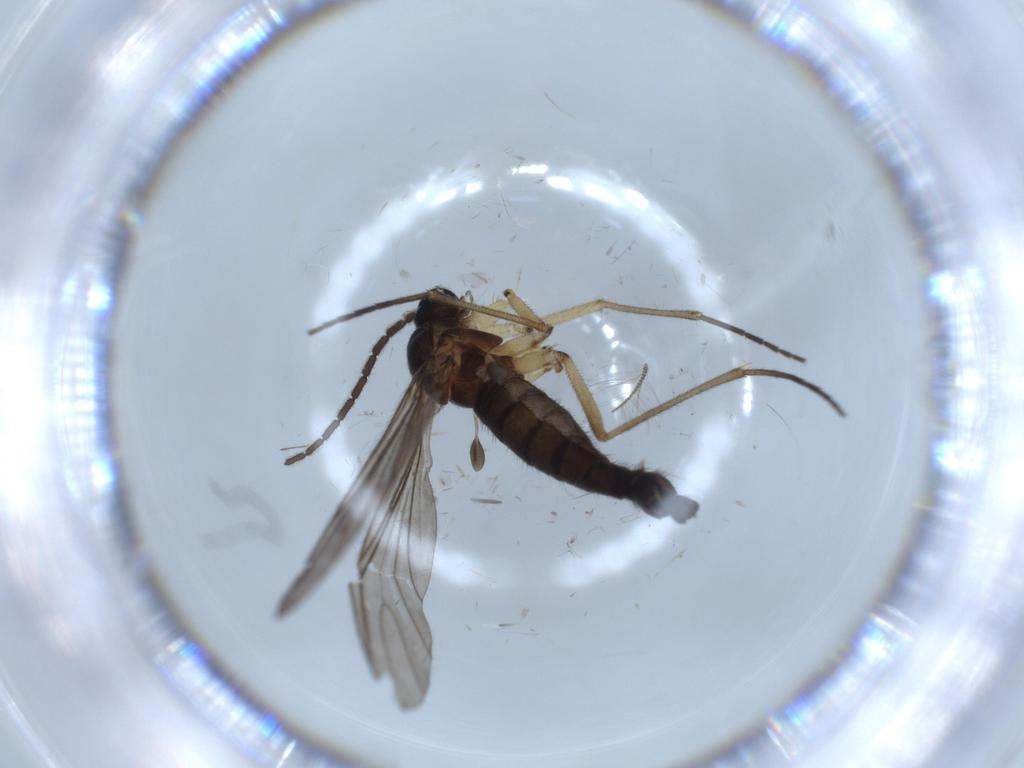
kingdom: Animalia
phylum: Arthropoda
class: Insecta
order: Diptera
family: Sciaridae
